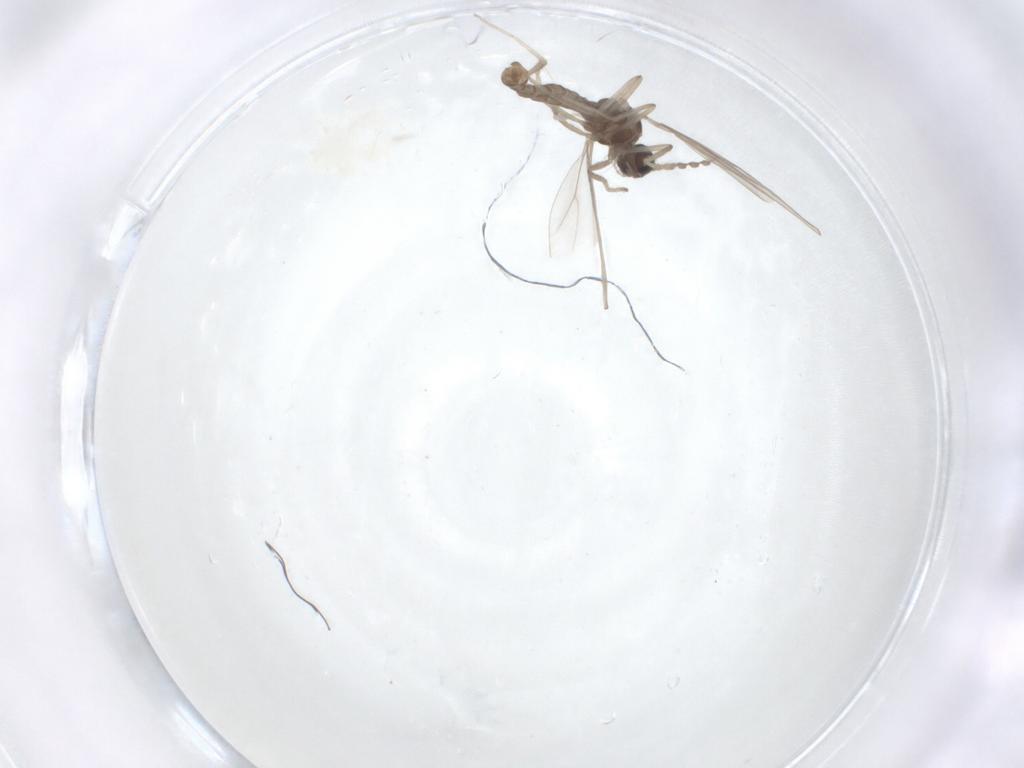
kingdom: Animalia
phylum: Arthropoda
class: Insecta
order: Diptera
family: Cecidomyiidae
